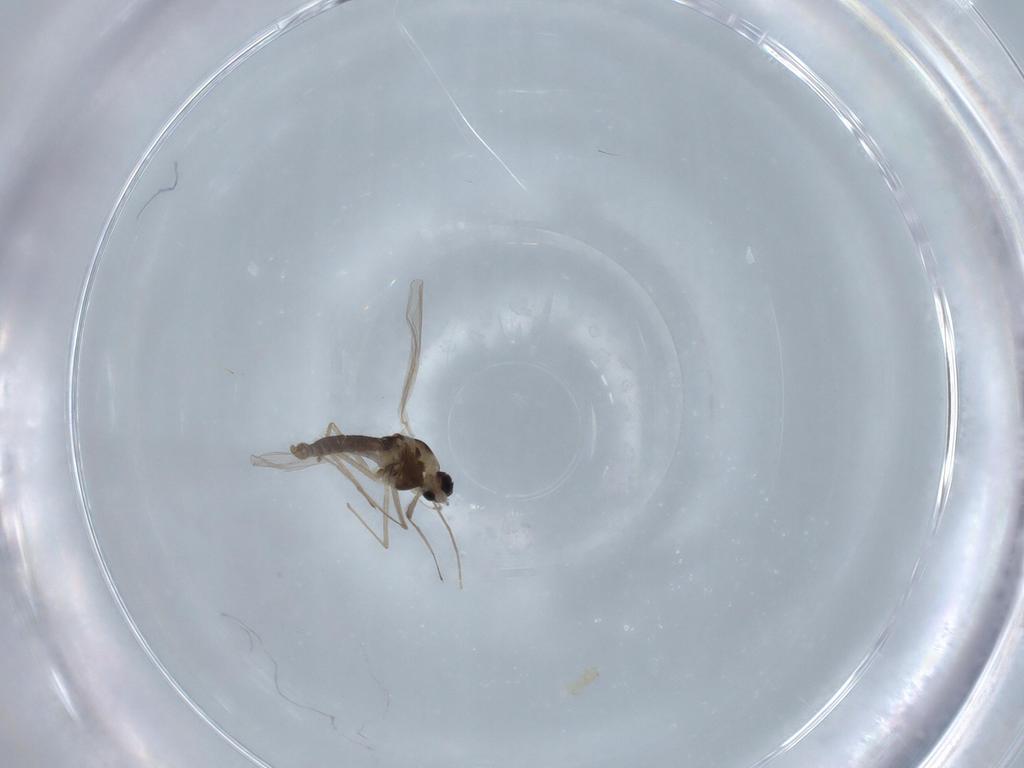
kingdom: Animalia
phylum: Arthropoda
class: Insecta
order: Diptera
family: Chironomidae
